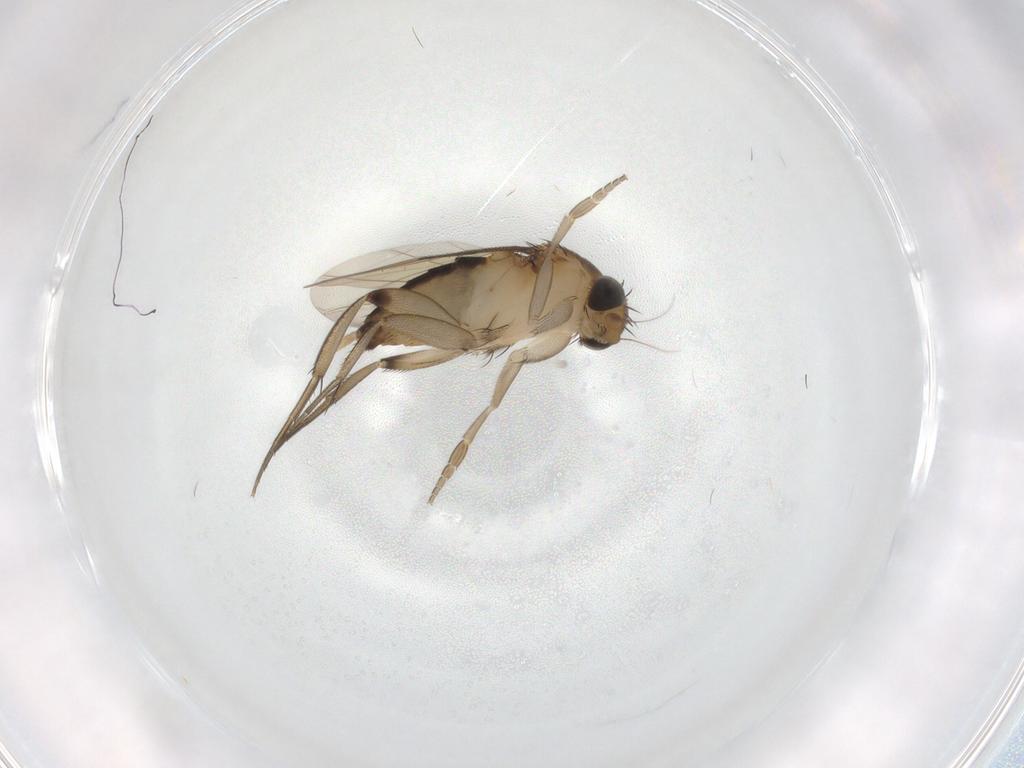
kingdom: Animalia
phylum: Arthropoda
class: Insecta
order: Diptera
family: Phoridae
